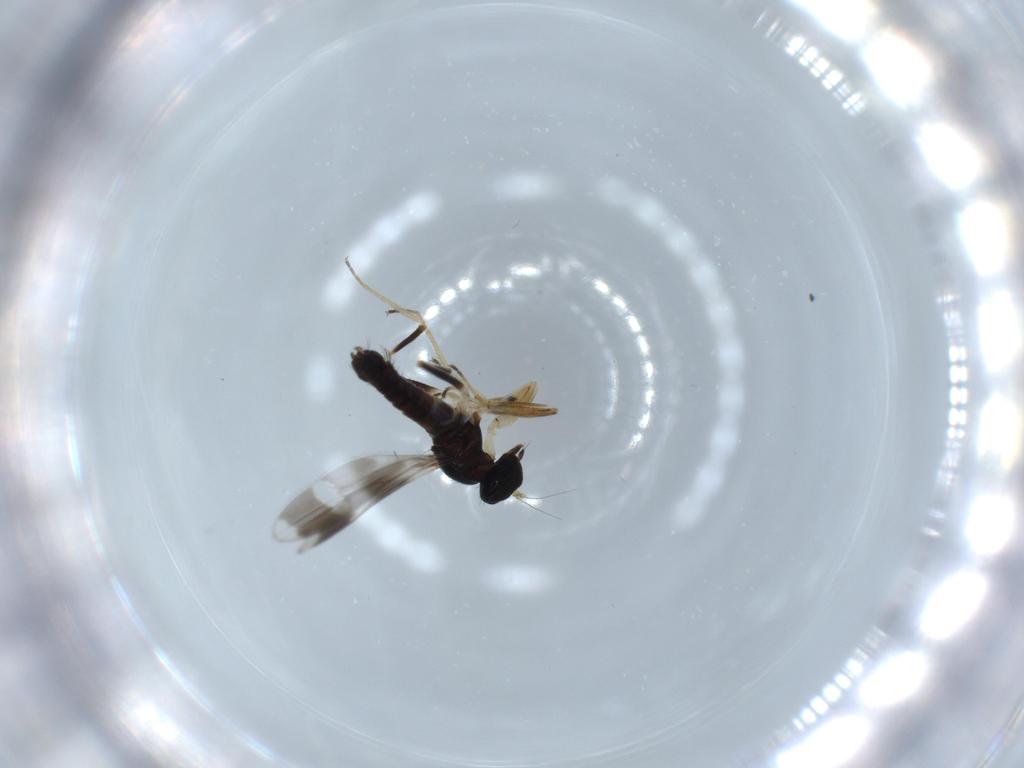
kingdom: Animalia
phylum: Arthropoda
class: Insecta
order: Diptera
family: Hybotidae
